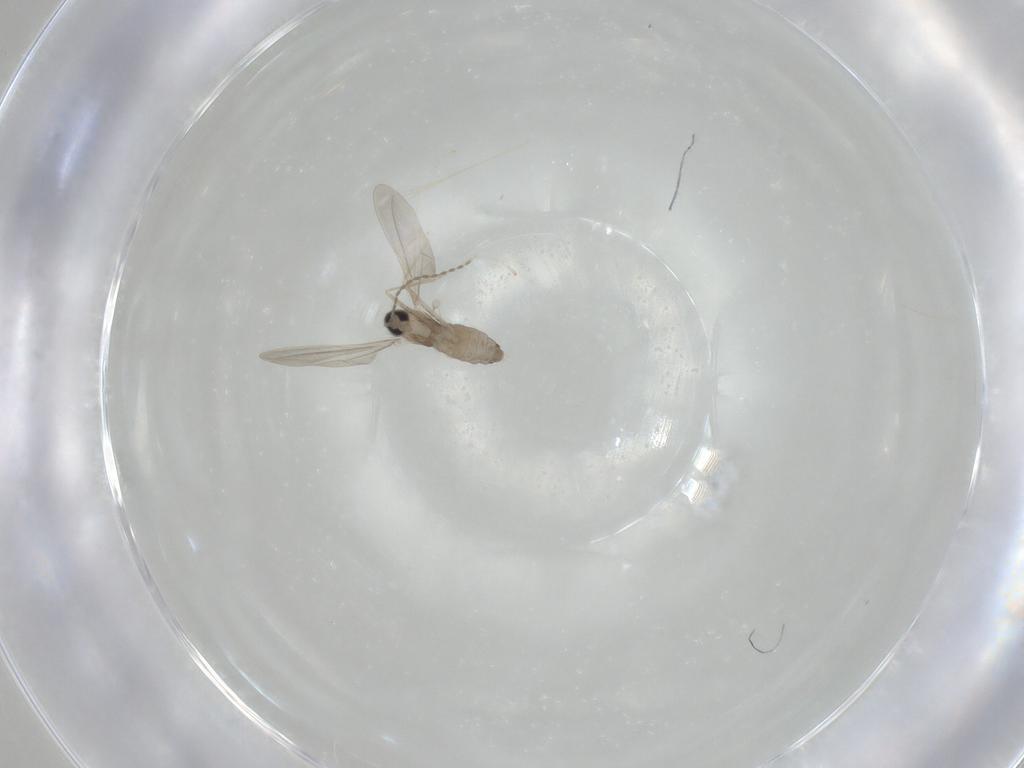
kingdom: Animalia
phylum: Arthropoda
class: Insecta
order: Diptera
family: Cecidomyiidae
